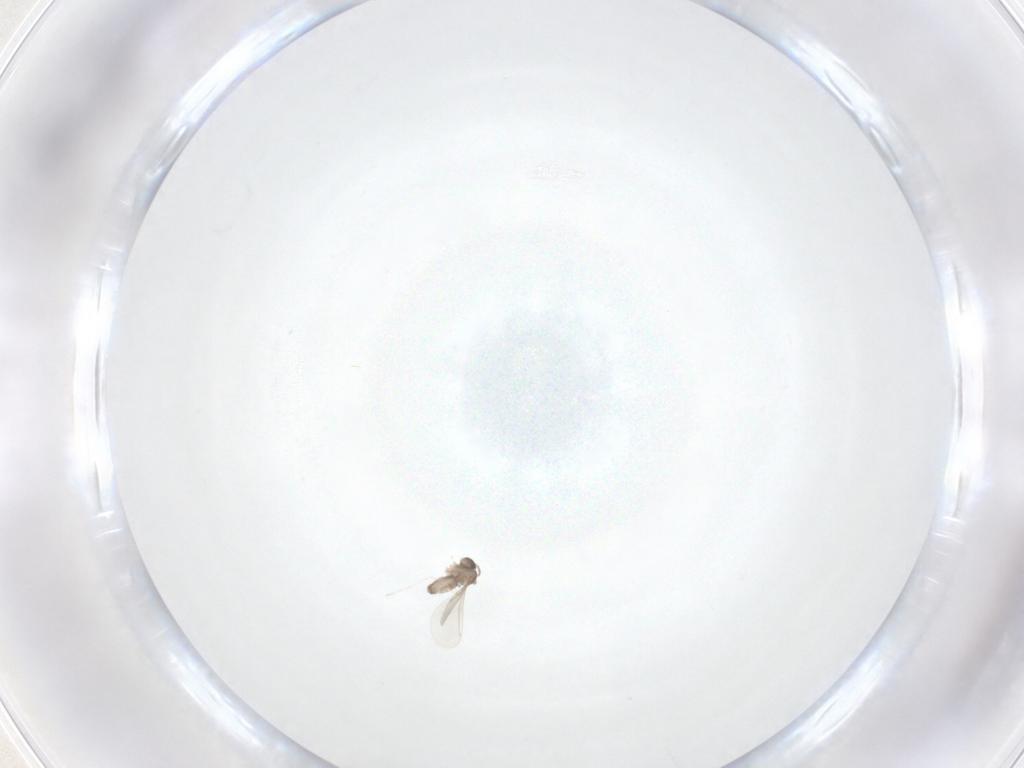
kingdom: Animalia
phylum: Arthropoda
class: Insecta
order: Diptera
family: Cecidomyiidae
